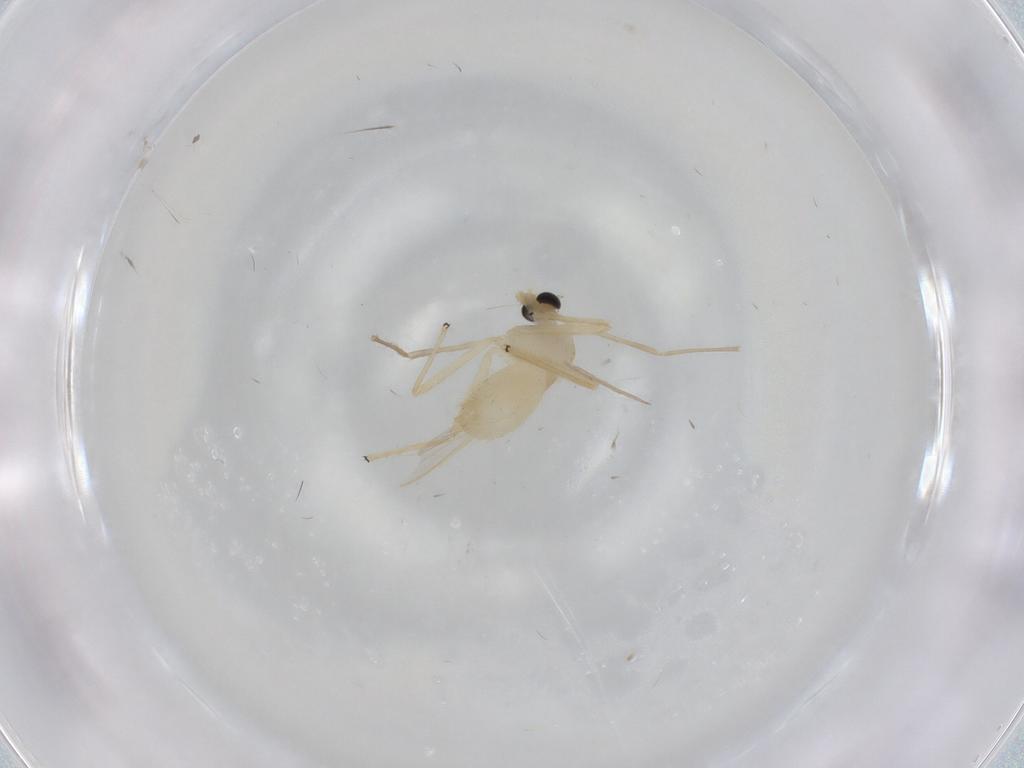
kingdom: Animalia
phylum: Arthropoda
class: Insecta
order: Diptera
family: Chironomidae
